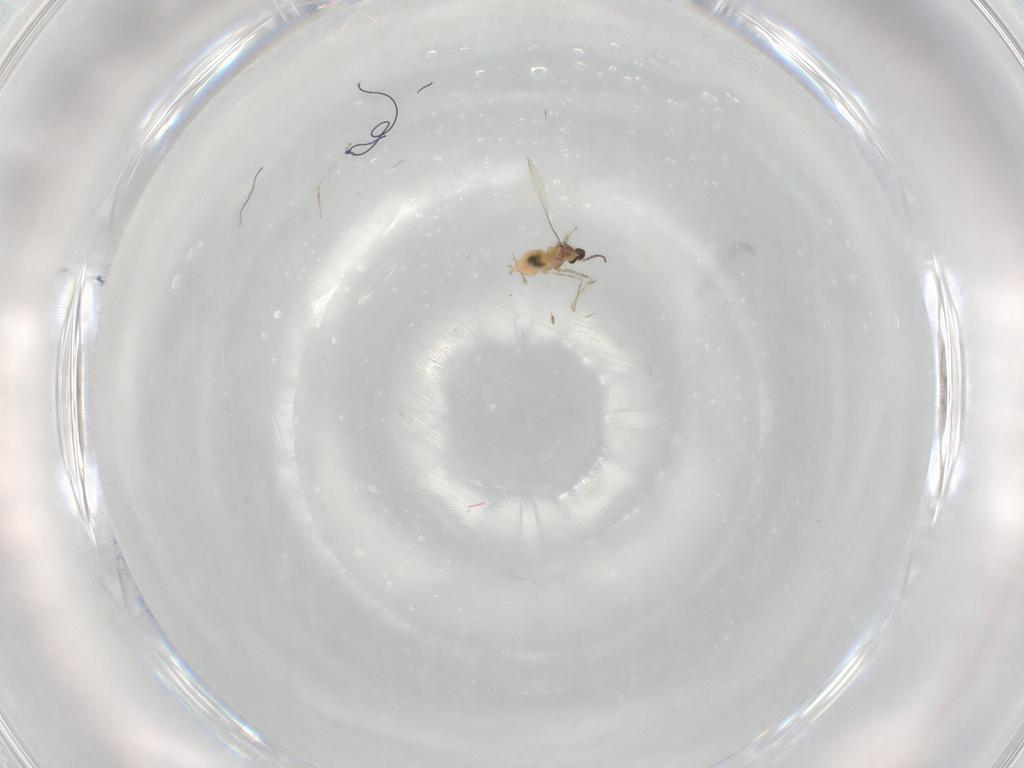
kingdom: Animalia
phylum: Arthropoda
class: Insecta
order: Diptera
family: Cecidomyiidae
